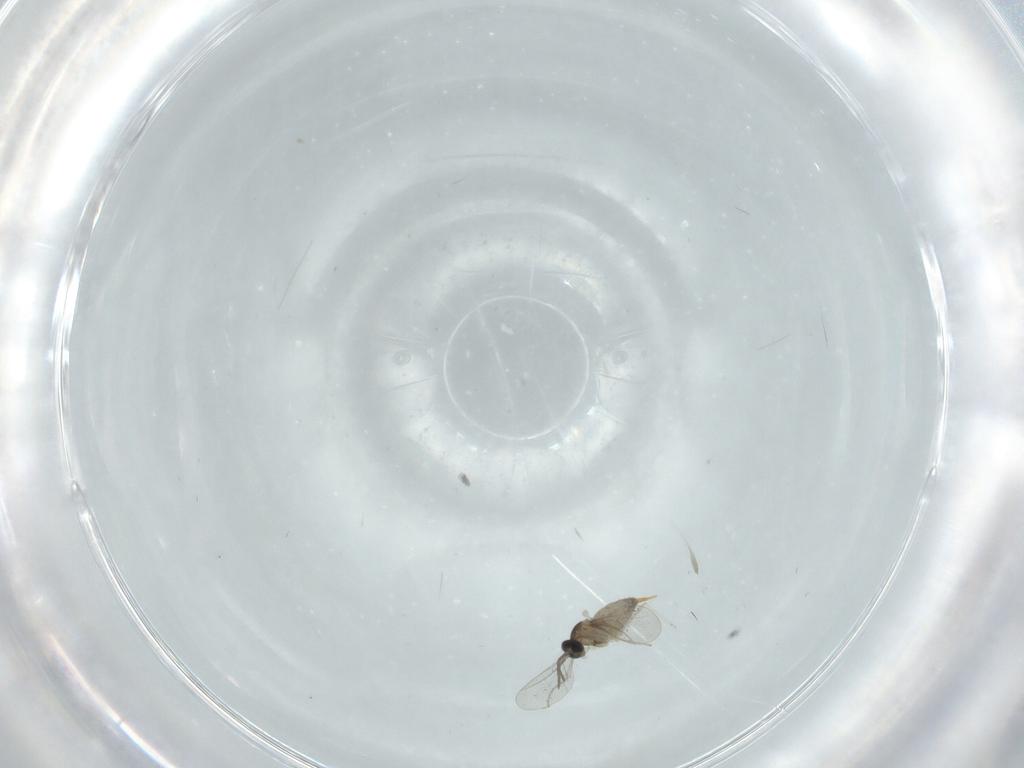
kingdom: Animalia
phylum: Arthropoda
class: Insecta
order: Diptera
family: Cecidomyiidae
